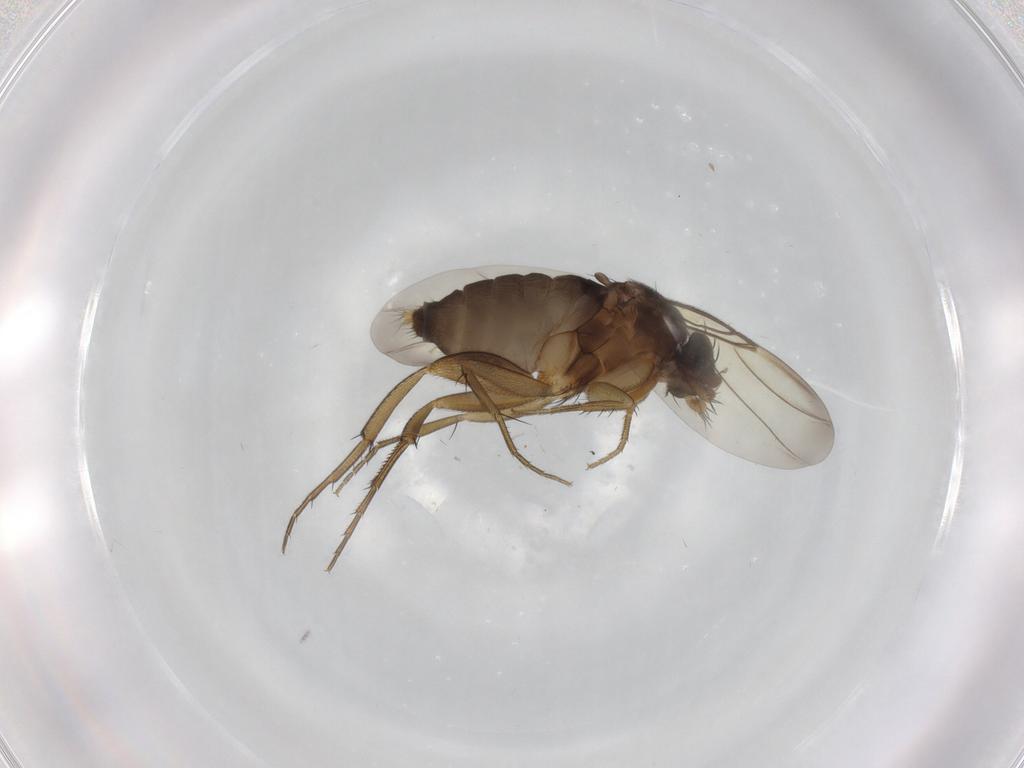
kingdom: Animalia
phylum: Arthropoda
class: Insecta
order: Diptera
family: Phoridae
